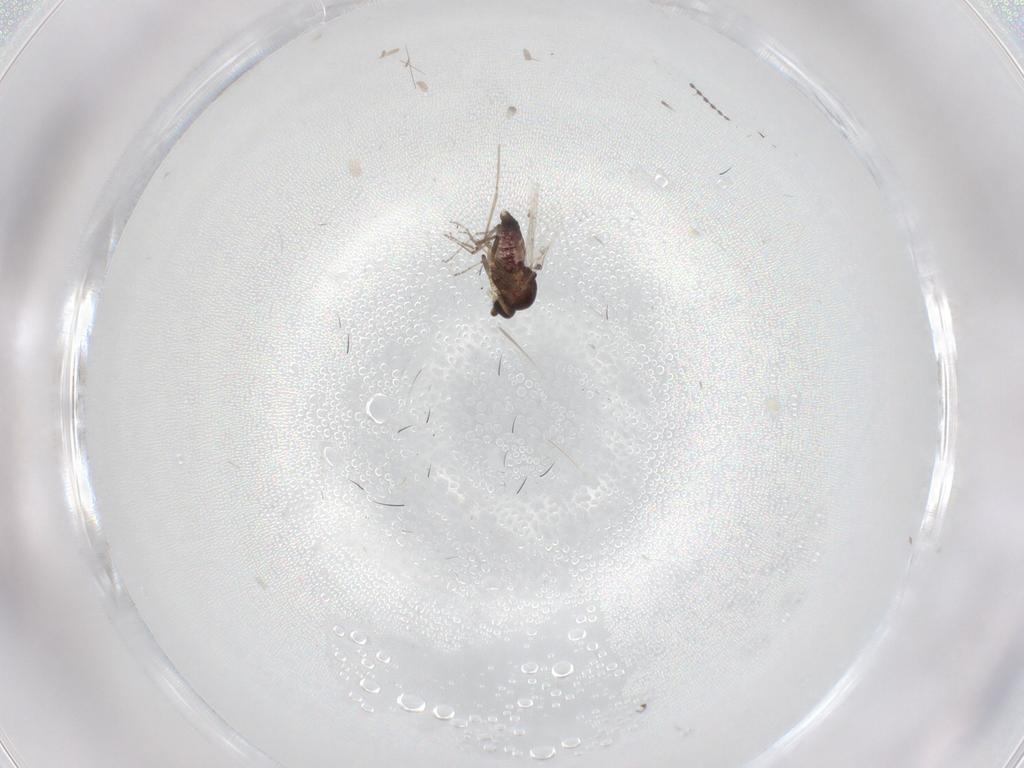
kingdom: Animalia
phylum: Arthropoda
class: Insecta
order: Diptera
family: Ceratopogonidae
